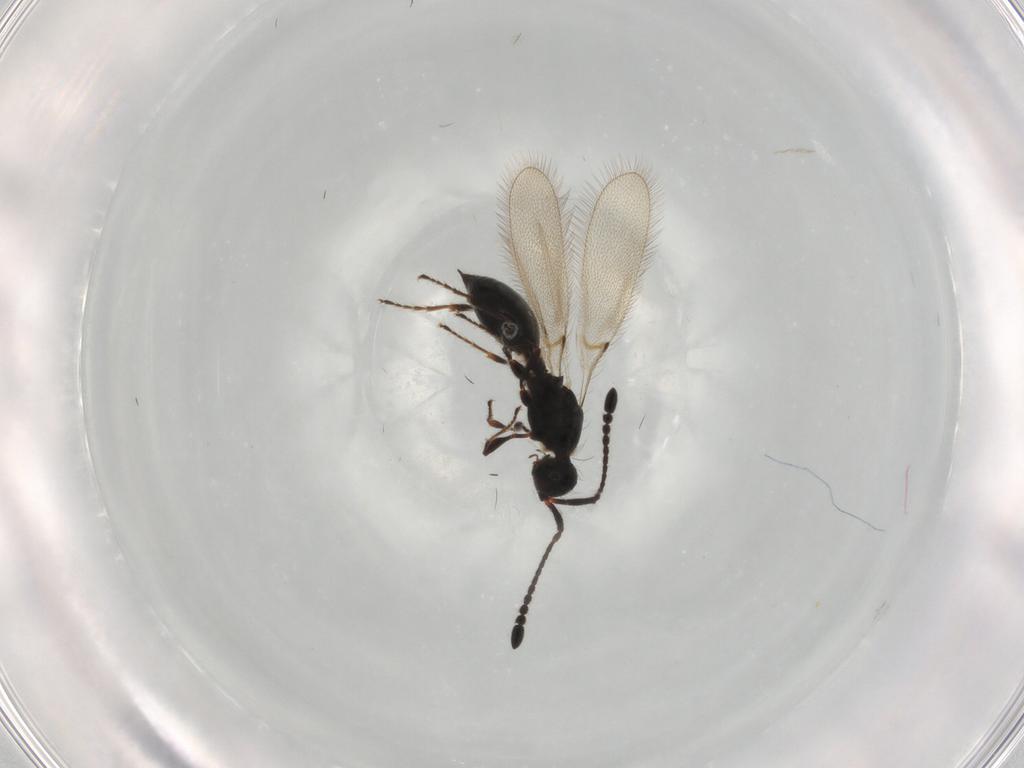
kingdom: Animalia
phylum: Arthropoda
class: Insecta
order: Hymenoptera
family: Diapriidae
